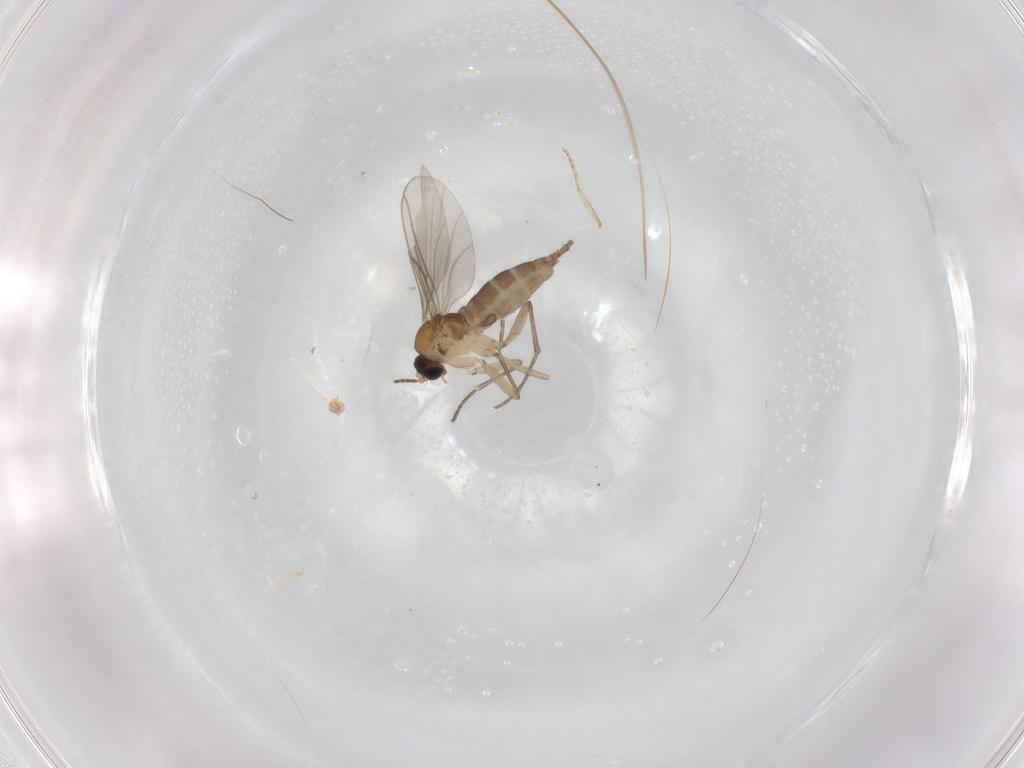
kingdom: Animalia
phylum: Arthropoda
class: Insecta
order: Diptera
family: Sciaridae
